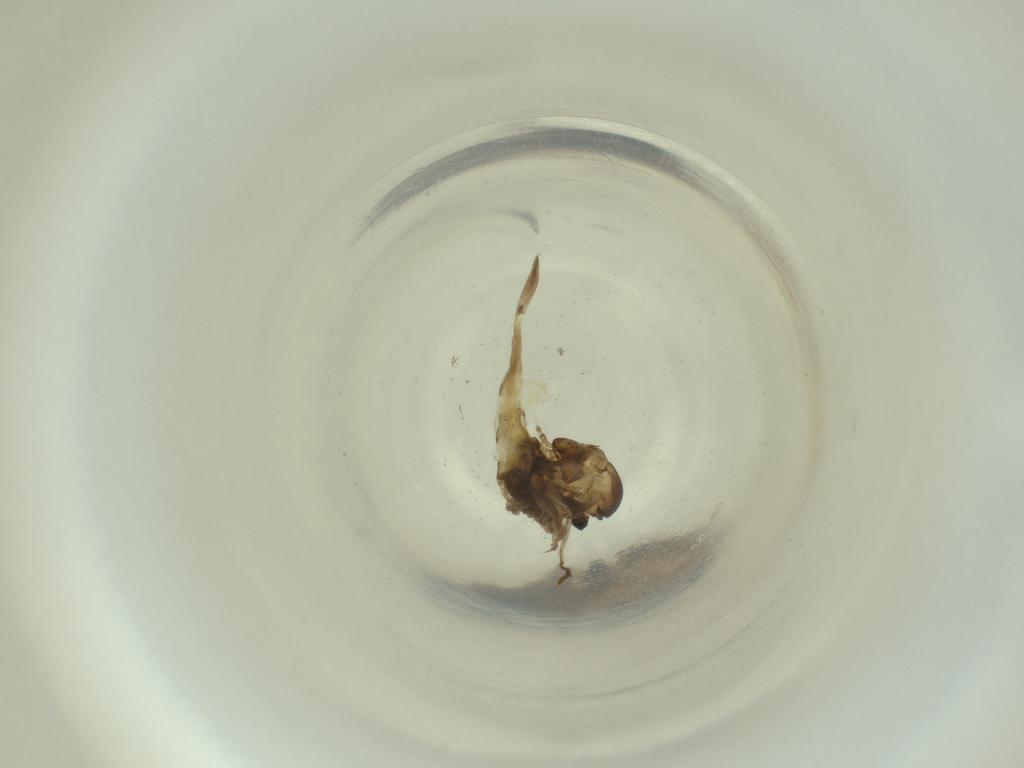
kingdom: Animalia
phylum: Arthropoda
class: Insecta
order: Diptera
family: Cecidomyiidae
